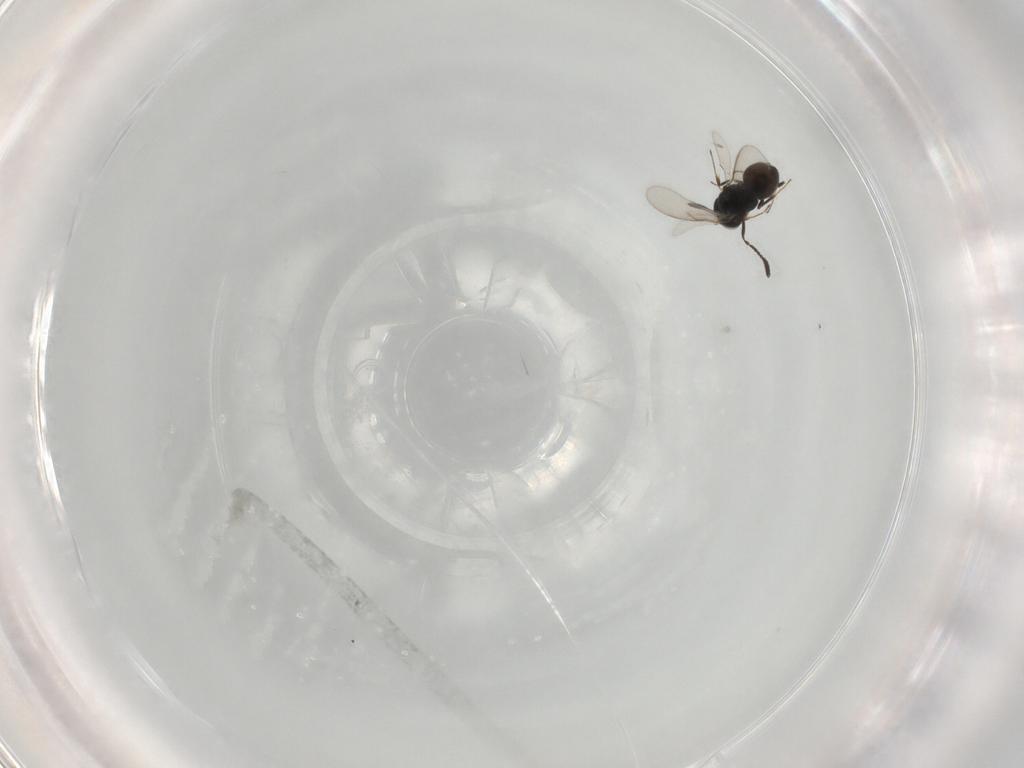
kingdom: Animalia
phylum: Arthropoda
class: Insecta
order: Hymenoptera
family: Scelionidae
